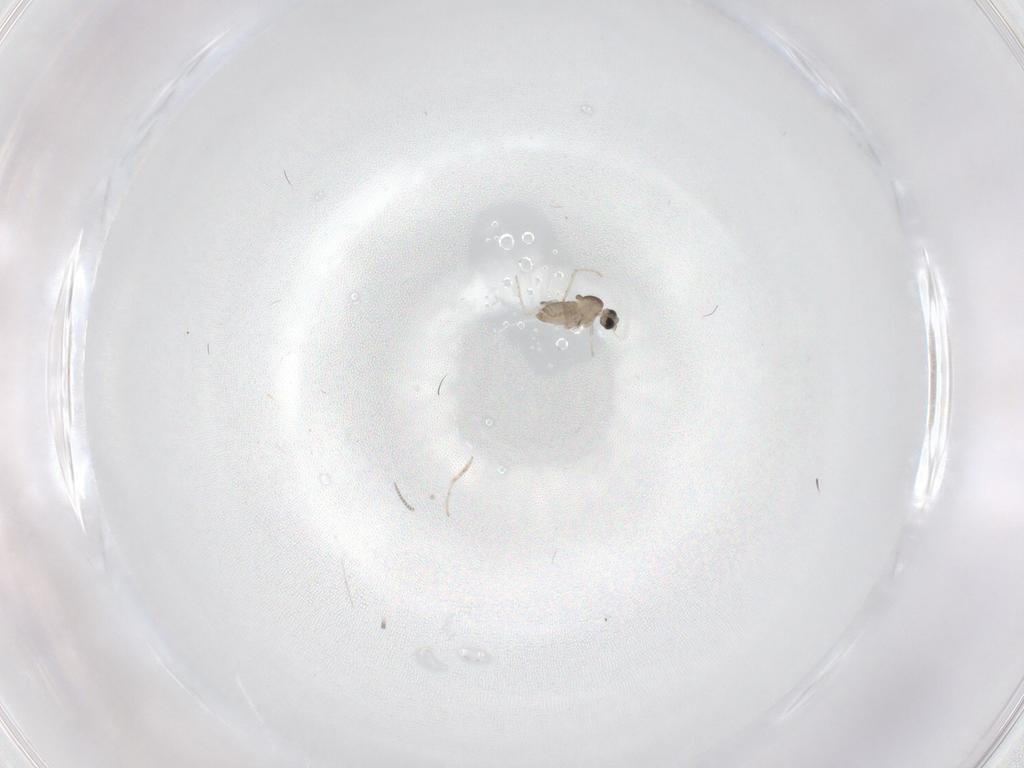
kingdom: Animalia
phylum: Arthropoda
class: Insecta
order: Diptera
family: Cecidomyiidae
